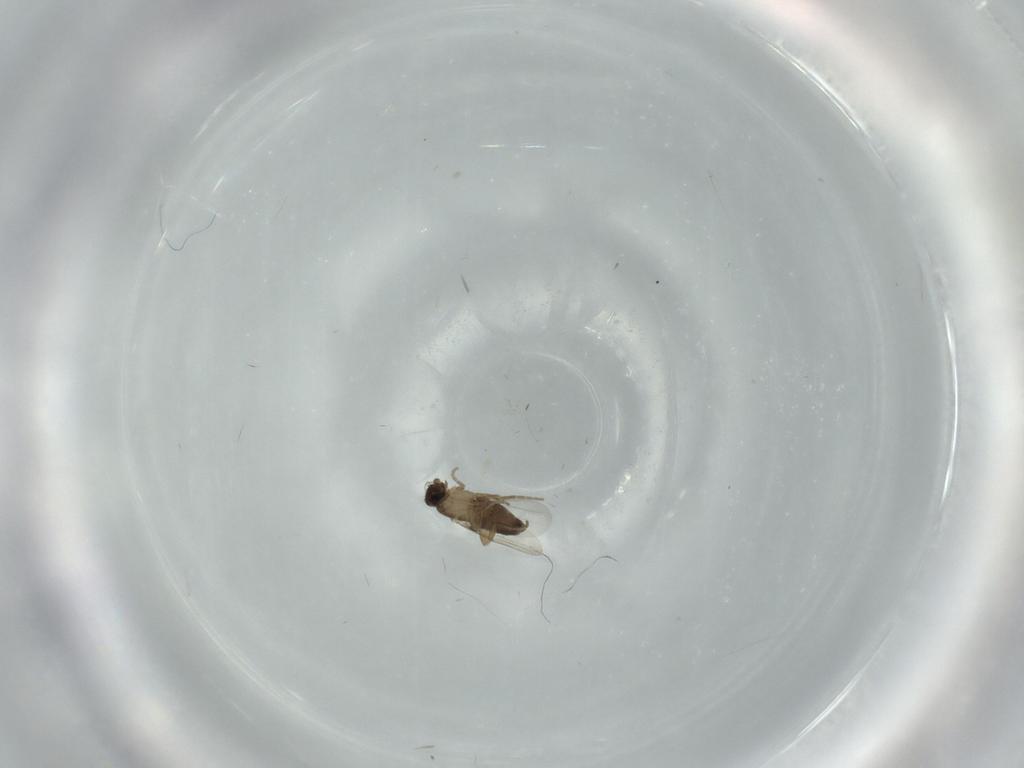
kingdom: Animalia
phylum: Arthropoda
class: Insecta
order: Diptera
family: Phoridae
